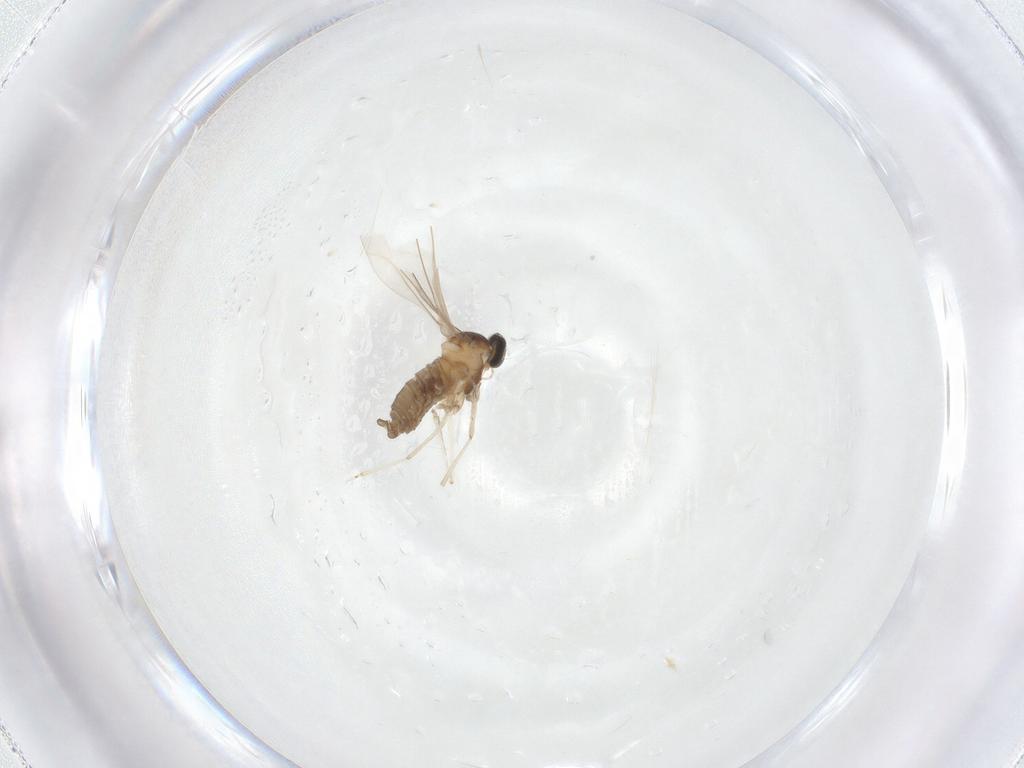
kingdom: Animalia
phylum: Arthropoda
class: Insecta
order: Diptera
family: Cecidomyiidae
